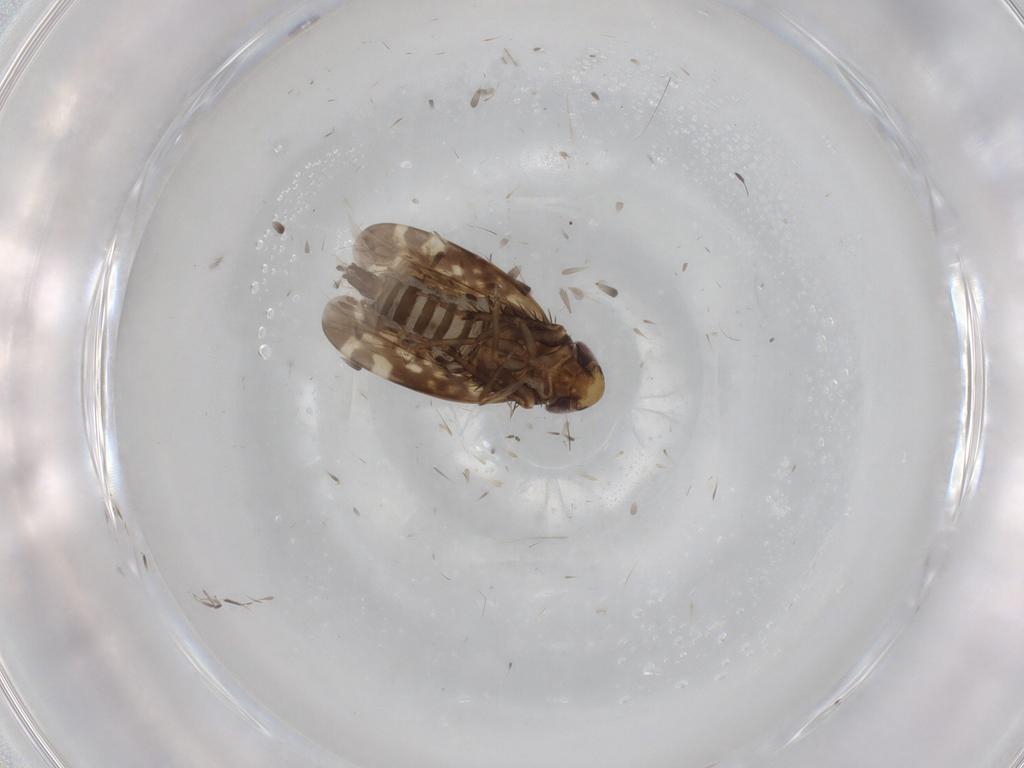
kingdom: Animalia
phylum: Arthropoda
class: Insecta
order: Hemiptera
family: Cicadellidae
